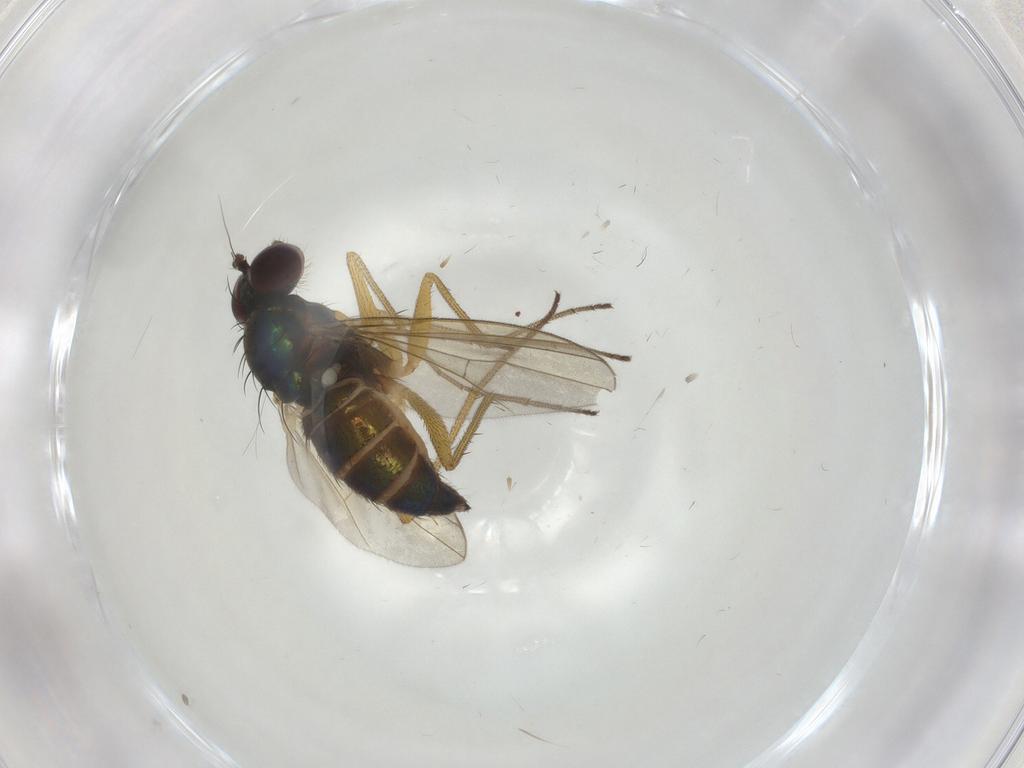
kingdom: Animalia
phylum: Arthropoda
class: Insecta
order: Diptera
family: Dolichopodidae
